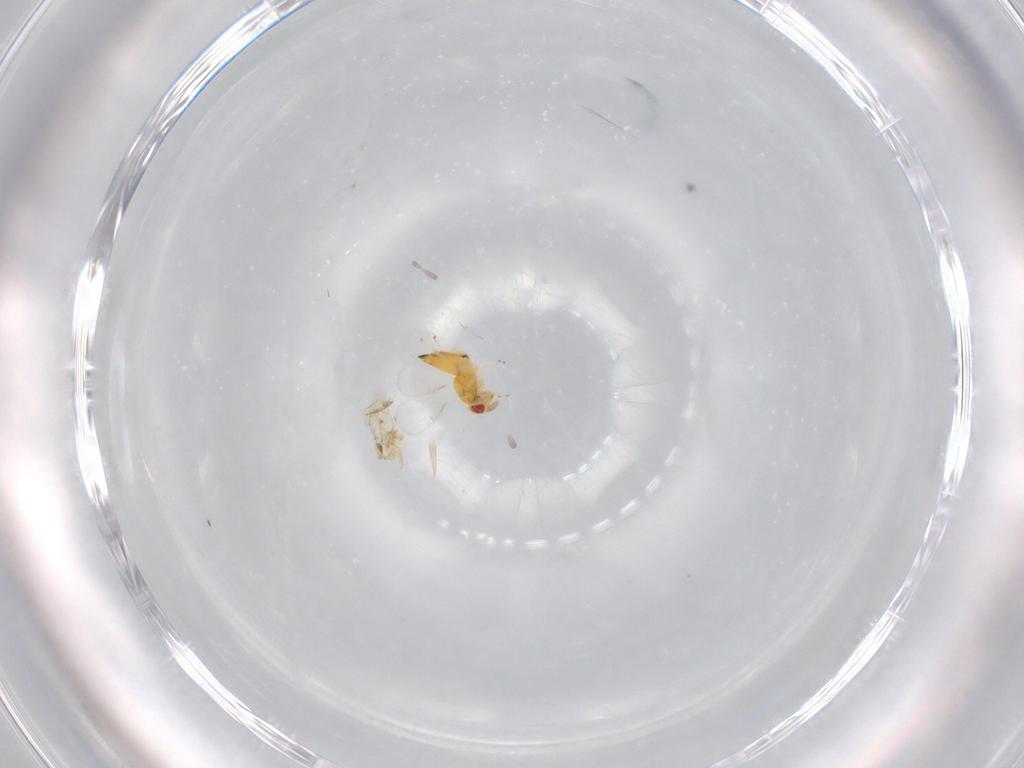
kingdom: Animalia
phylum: Arthropoda
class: Insecta
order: Hymenoptera
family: Eulophidae
